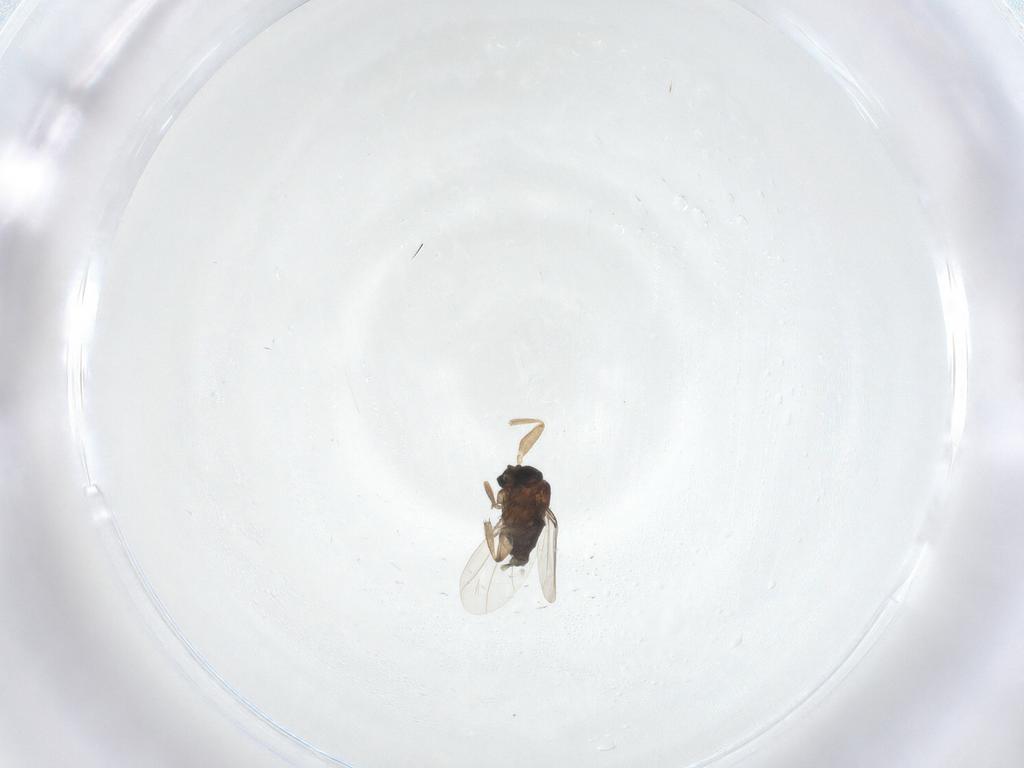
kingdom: Animalia
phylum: Arthropoda
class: Insecta
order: Diptera
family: Phoridae
